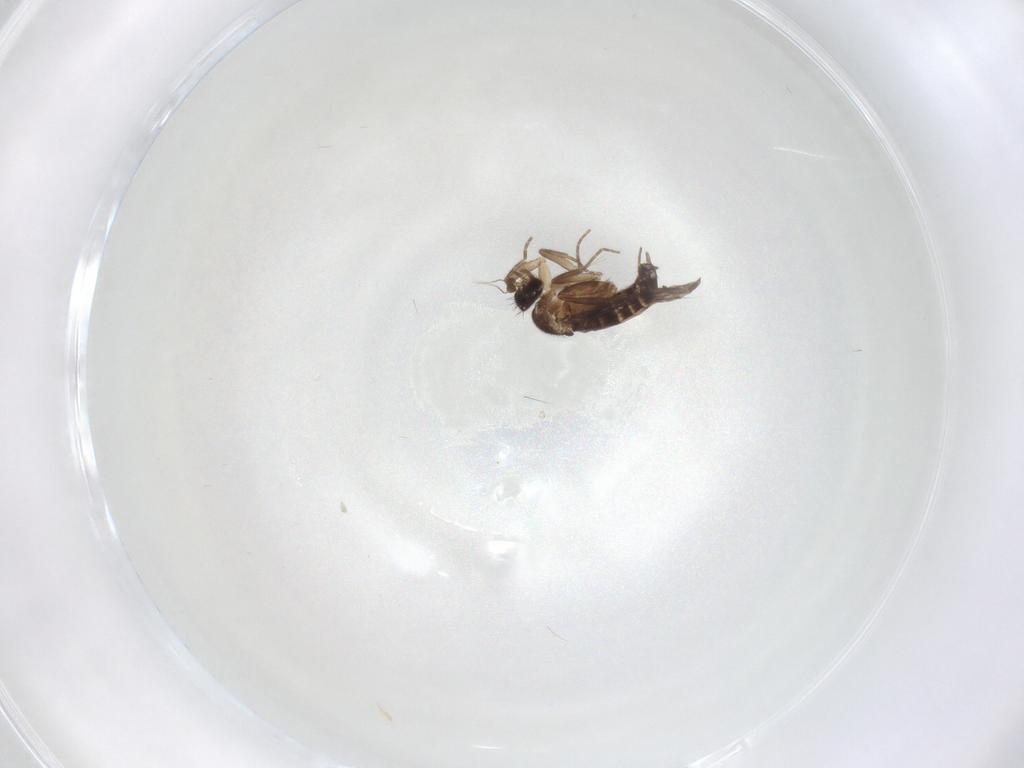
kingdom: Animalia
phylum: Arthropoda
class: Insecta
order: Diptera
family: Cecidomyiidae
